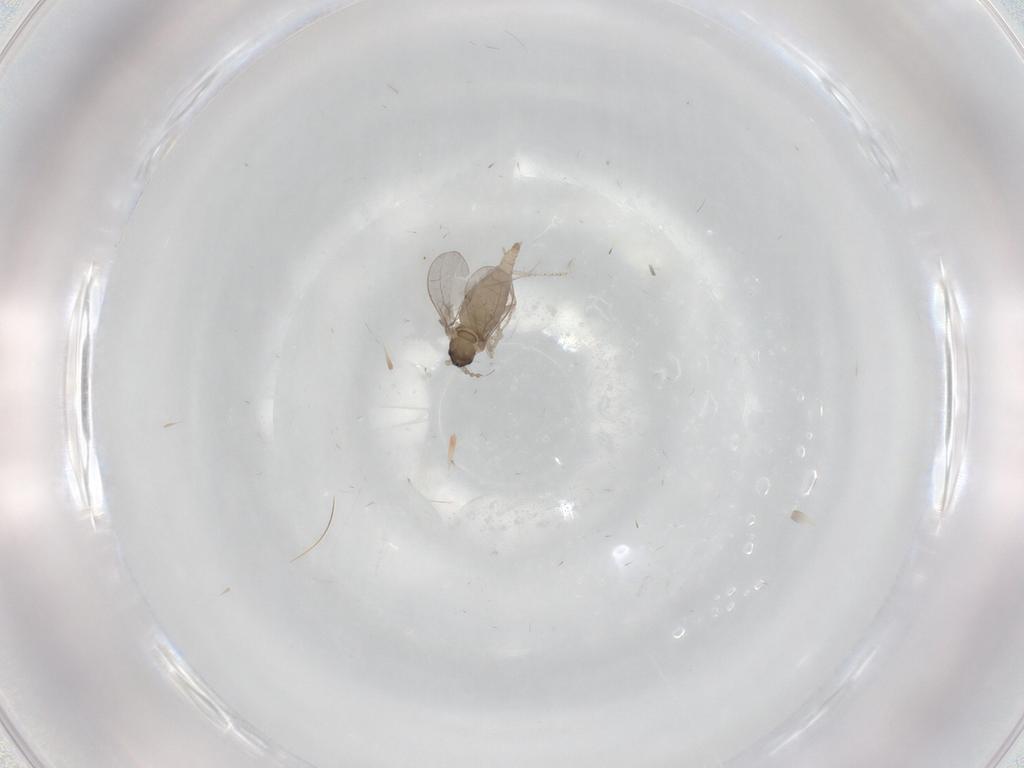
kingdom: Animalia
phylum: Arthropoda
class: Insecta
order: Diptera
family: Cecidomyiidae
